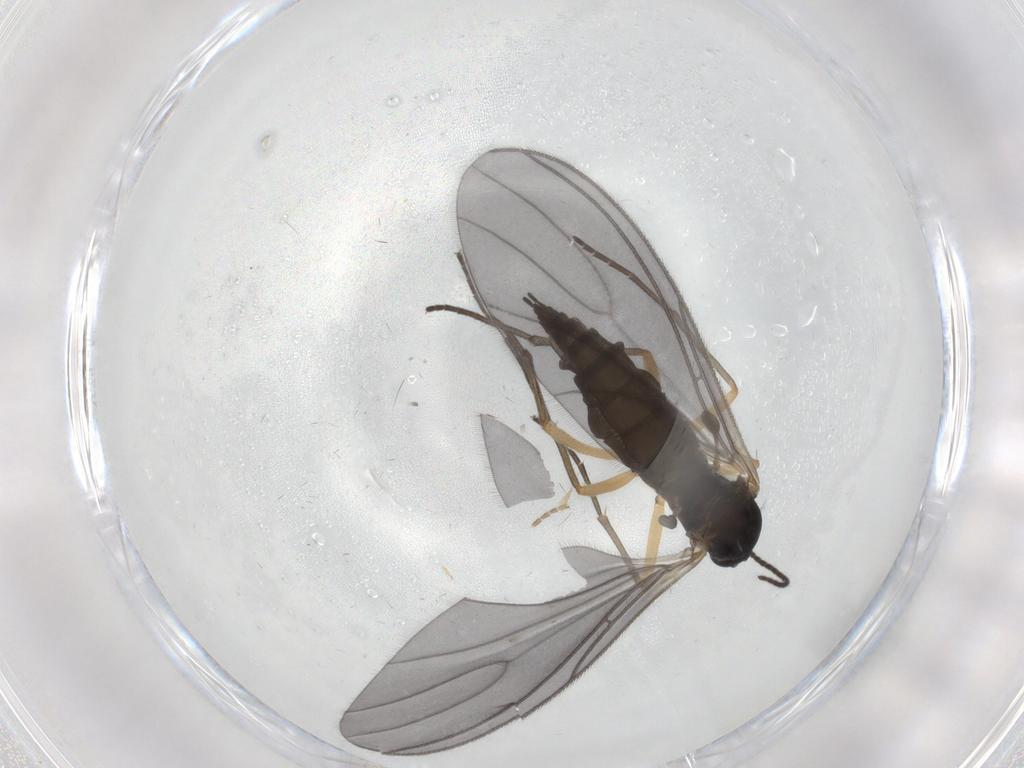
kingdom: Animalia
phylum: Arthropoda
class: Insecta
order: Diptera
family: Sciaridae
